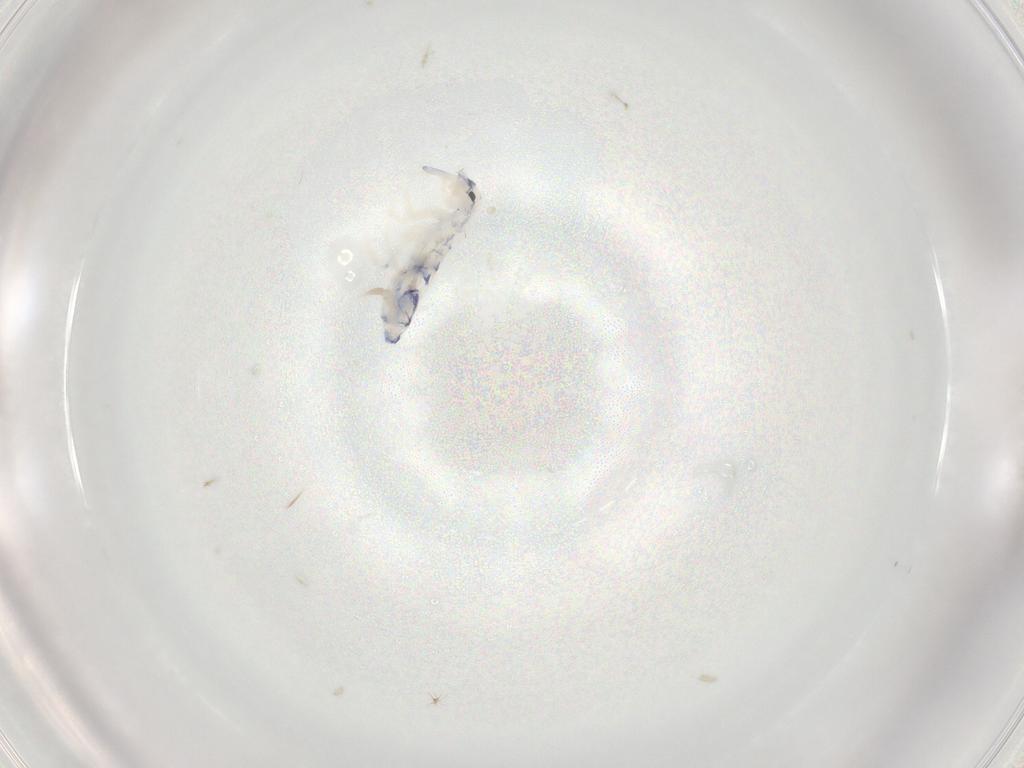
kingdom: Animalia
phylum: Arthropoda
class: Collembola
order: Entomobryomorpha
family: Entomobryidae
